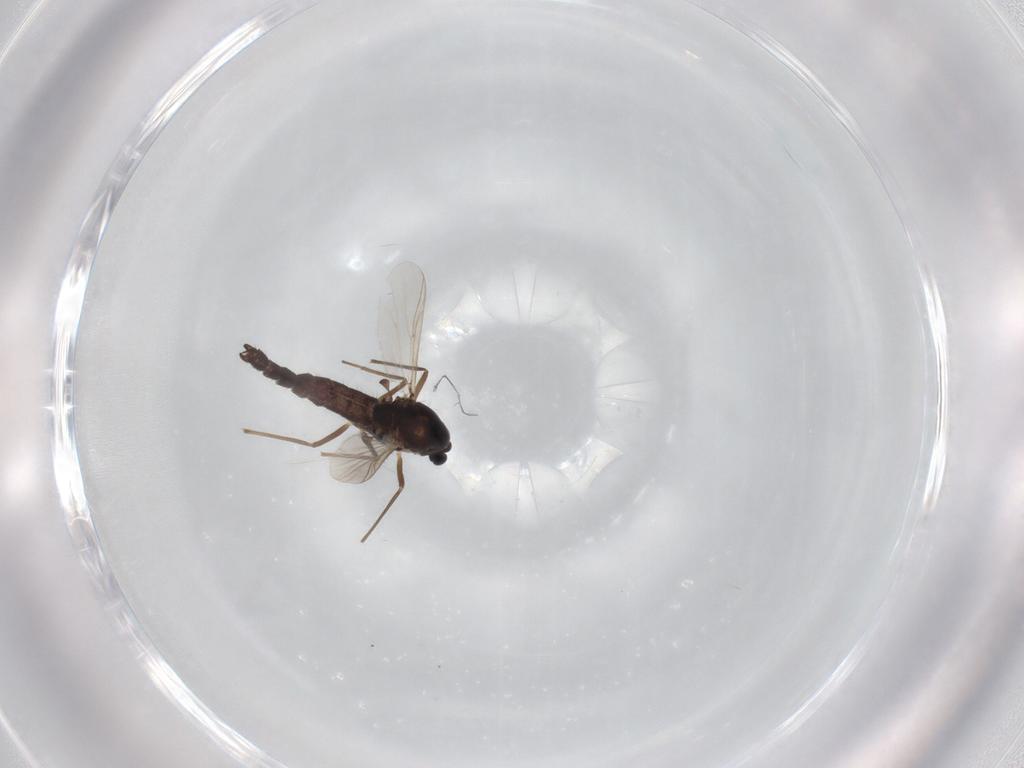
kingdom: Animalia
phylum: Arthropoda
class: Insecta
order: Diptera
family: Chironomidae
